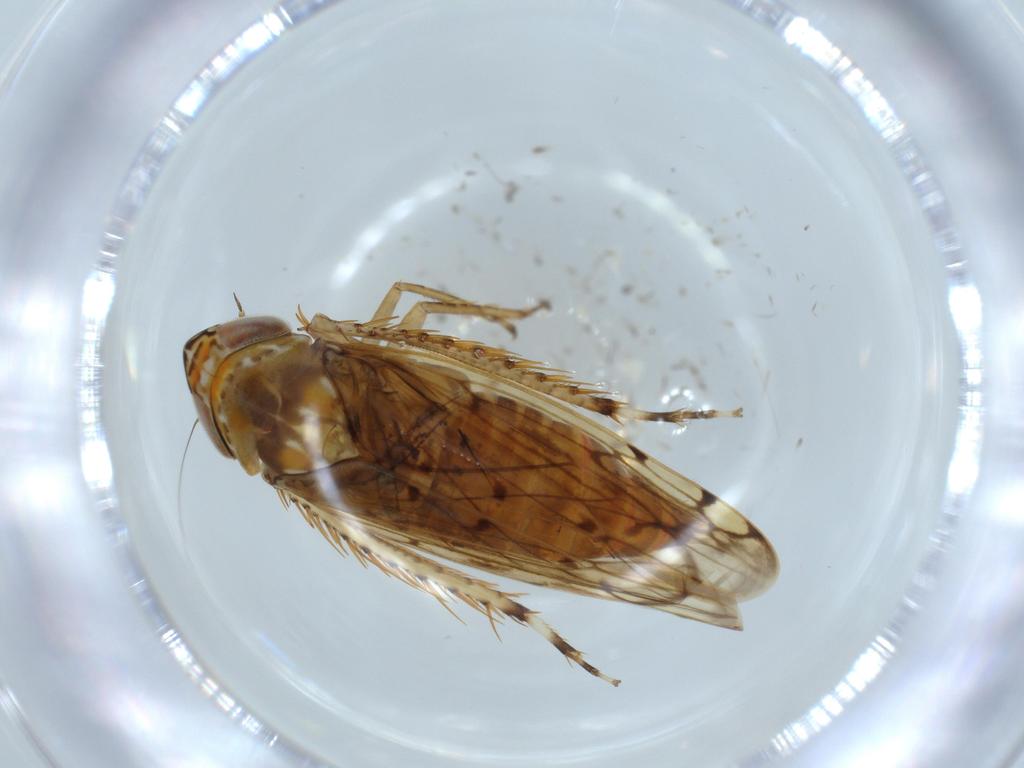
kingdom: Animalia
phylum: Arthropoda
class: Insecta
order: Hemiptera
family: Cicadellidae
